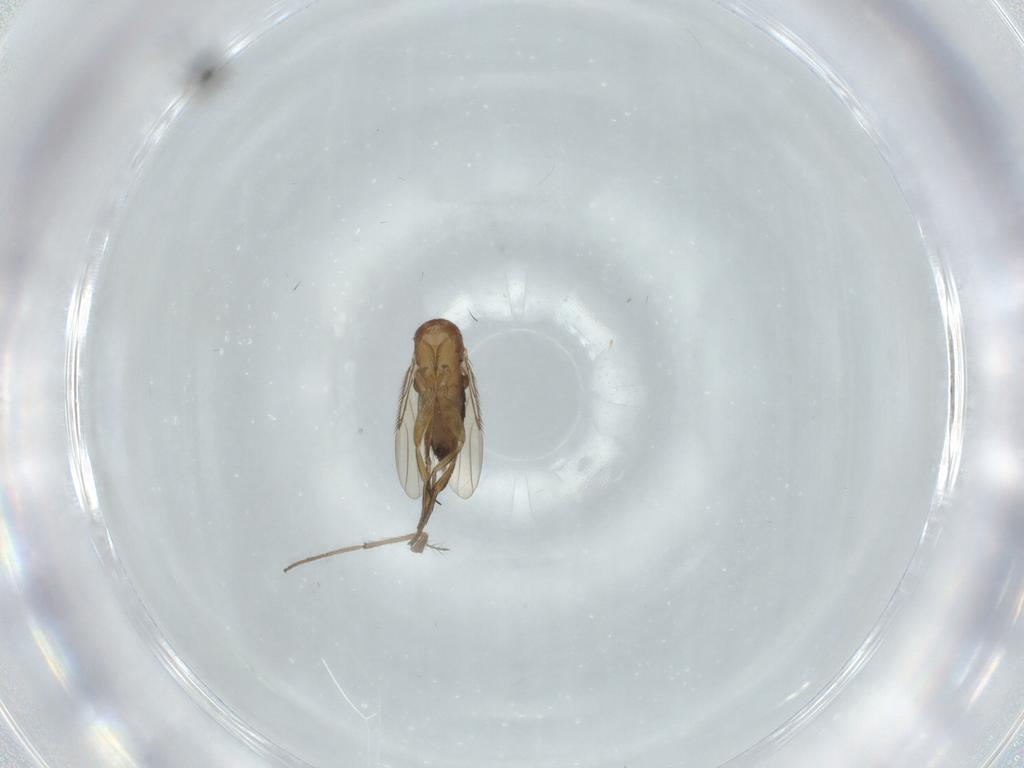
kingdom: Animalia
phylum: Arthropoda
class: Insecta
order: Diptera
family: Phoridae
